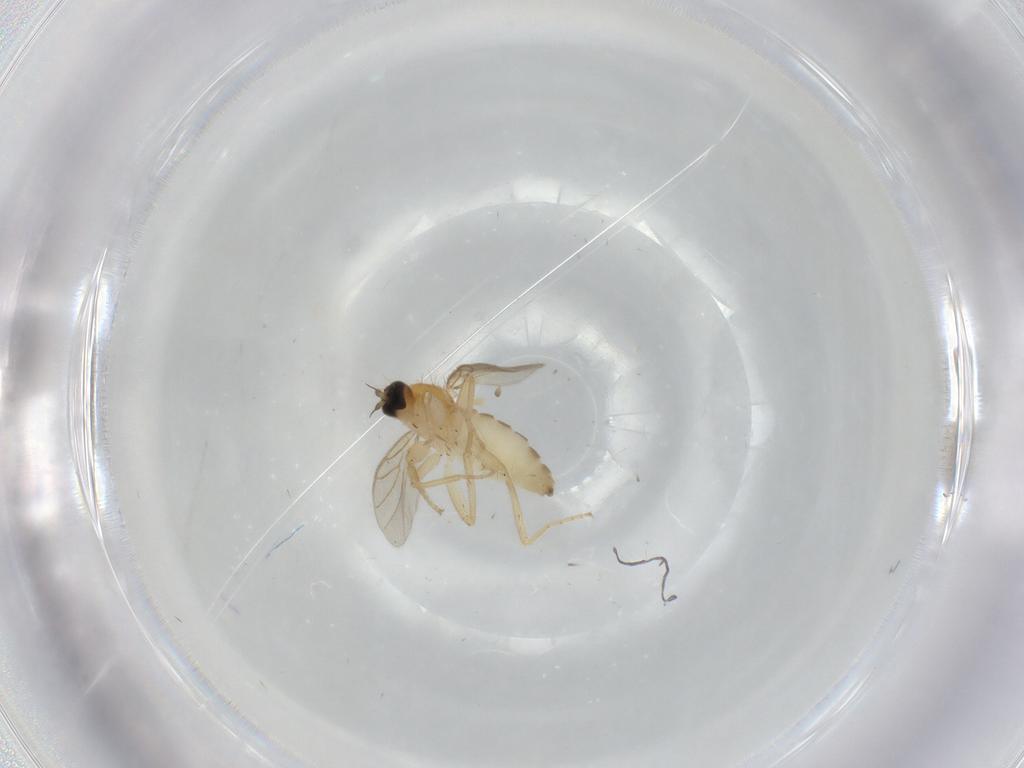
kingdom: Animalia
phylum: Arthropoda
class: Insecta
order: Diptera
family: Hybotidae
